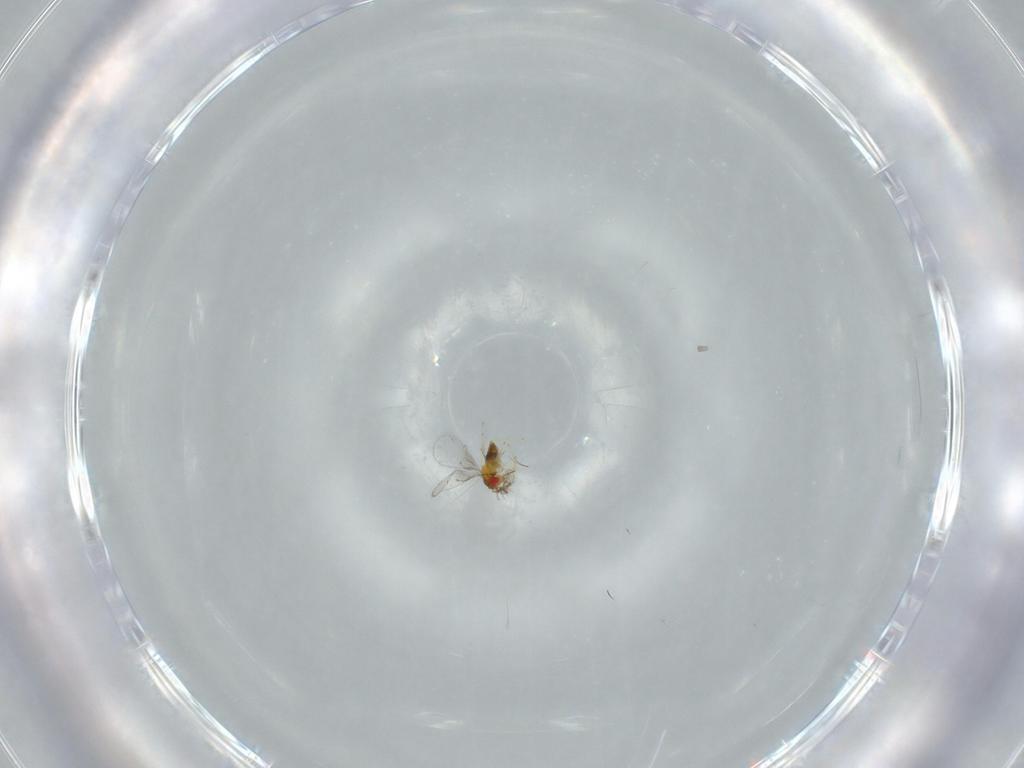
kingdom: Animalia
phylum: Arthropoda
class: Insecta
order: Hymenoptera
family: Trichogrammatidae
